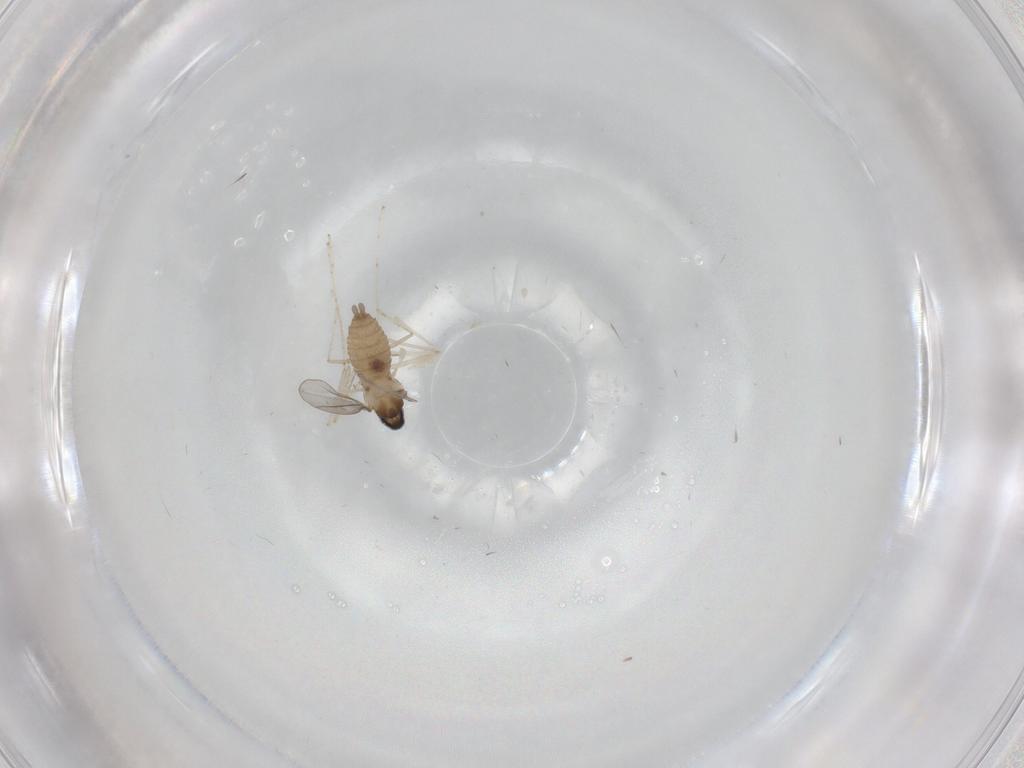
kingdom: Animalia
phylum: Arthropoda
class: Insecta
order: Diptera
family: Cecidomyiidae
